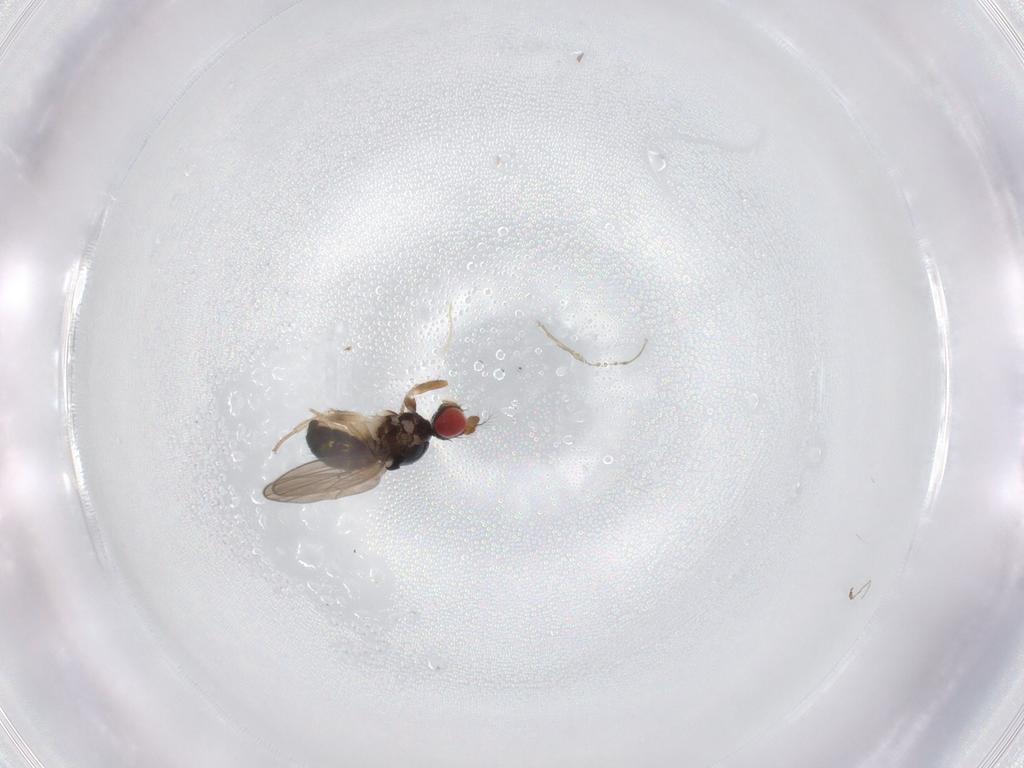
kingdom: Animalia
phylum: Arthropoda
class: Insecta
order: Diptera
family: Drosophilidae
